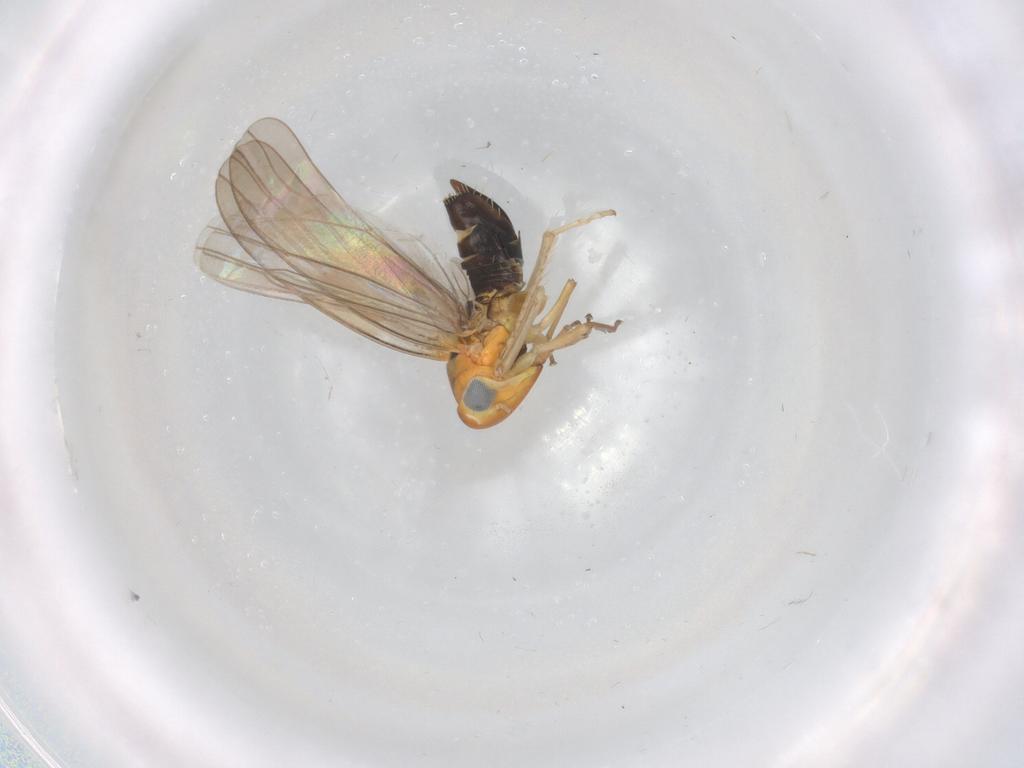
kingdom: Animalia
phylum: Arthropoda
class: Insecta
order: Hemiptera
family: Cicadellidae
